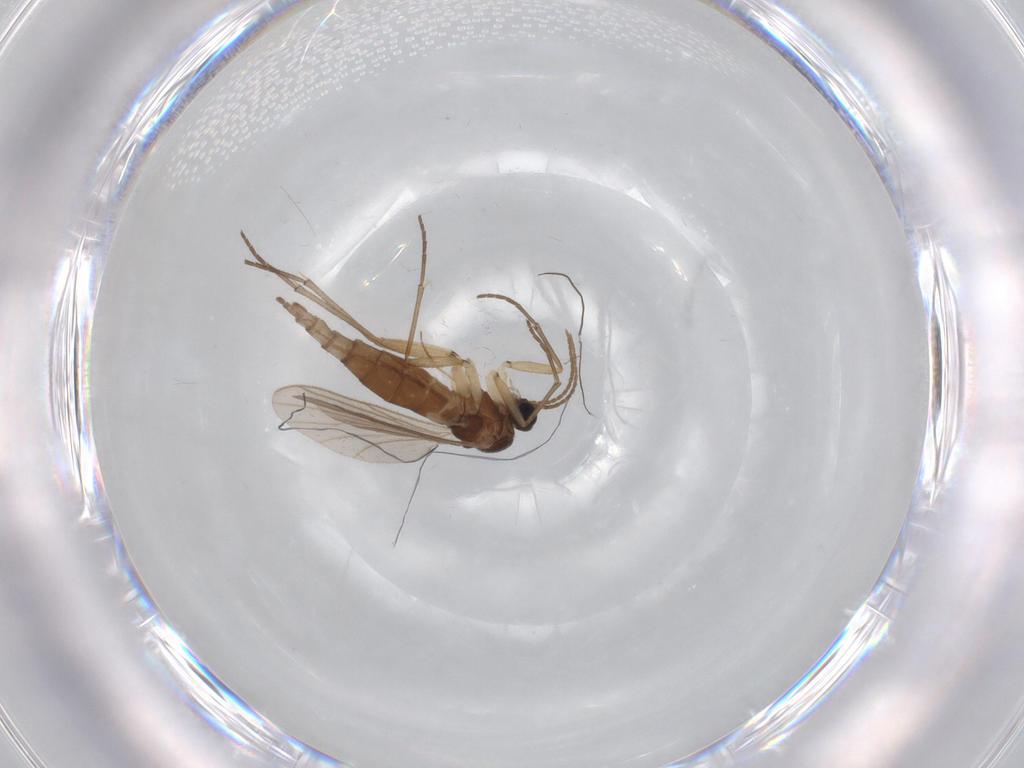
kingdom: Animalia
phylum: Arthropoda
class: Insecta
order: Diptera
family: Sciaridae
